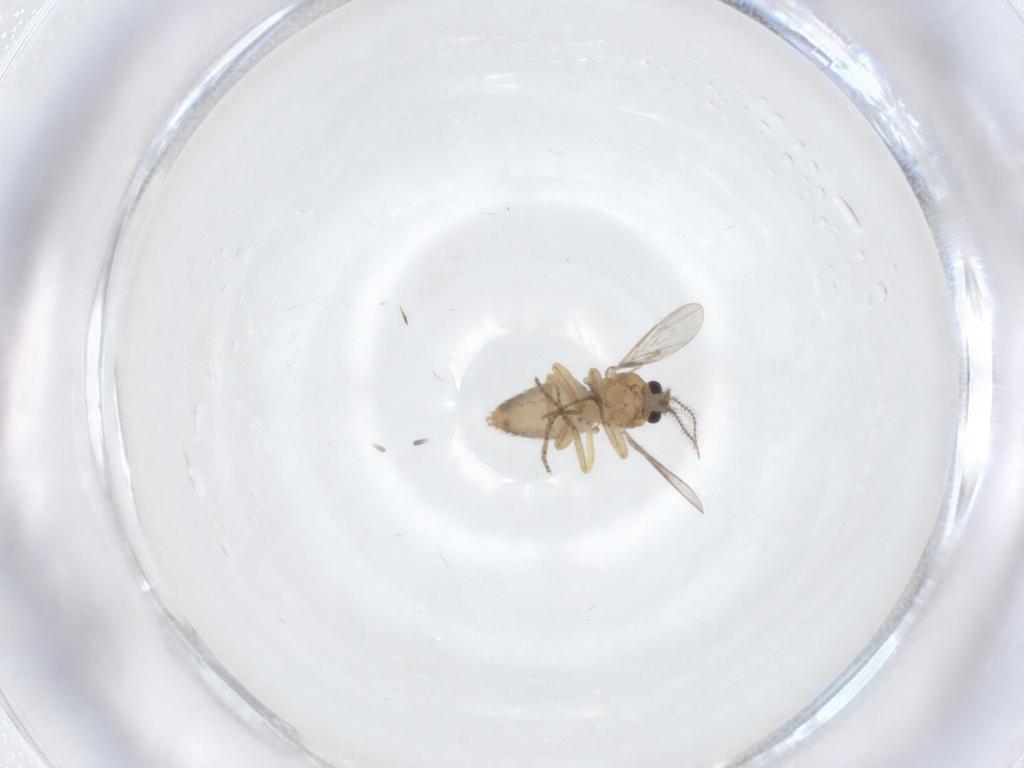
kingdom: Animalia
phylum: Arthropoda
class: Insecta
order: Diptera
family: Ceratopogonidae
